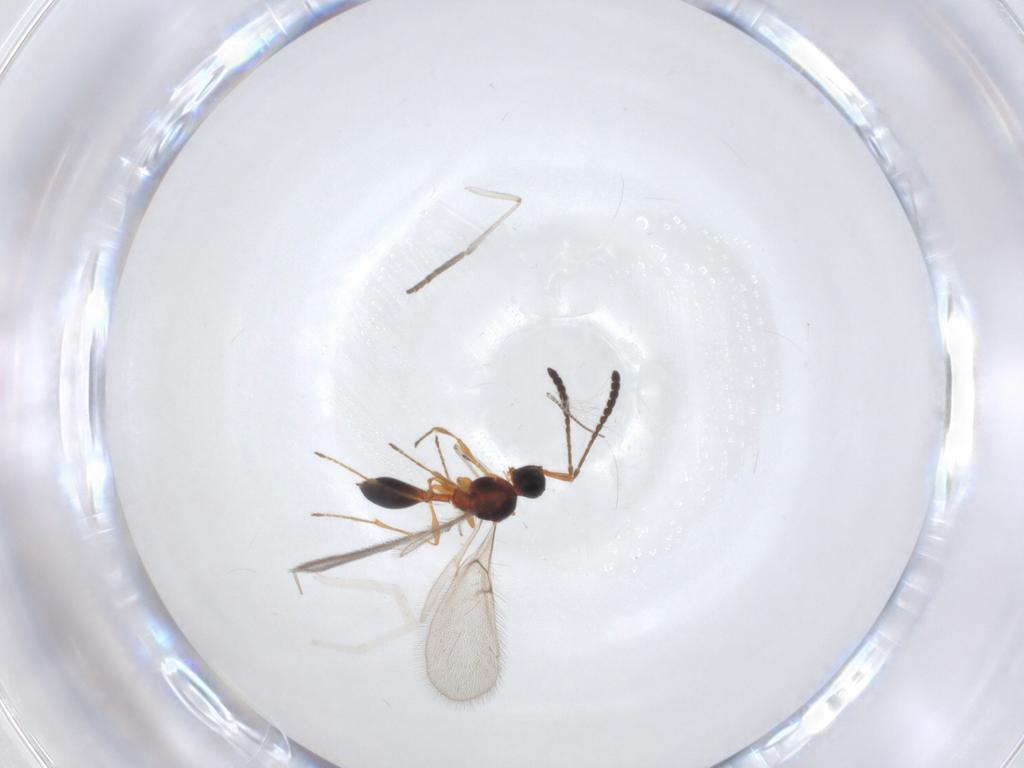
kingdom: Animalia
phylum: Arthropoda
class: Insecta
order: Hymenoptera
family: Diapriidae
